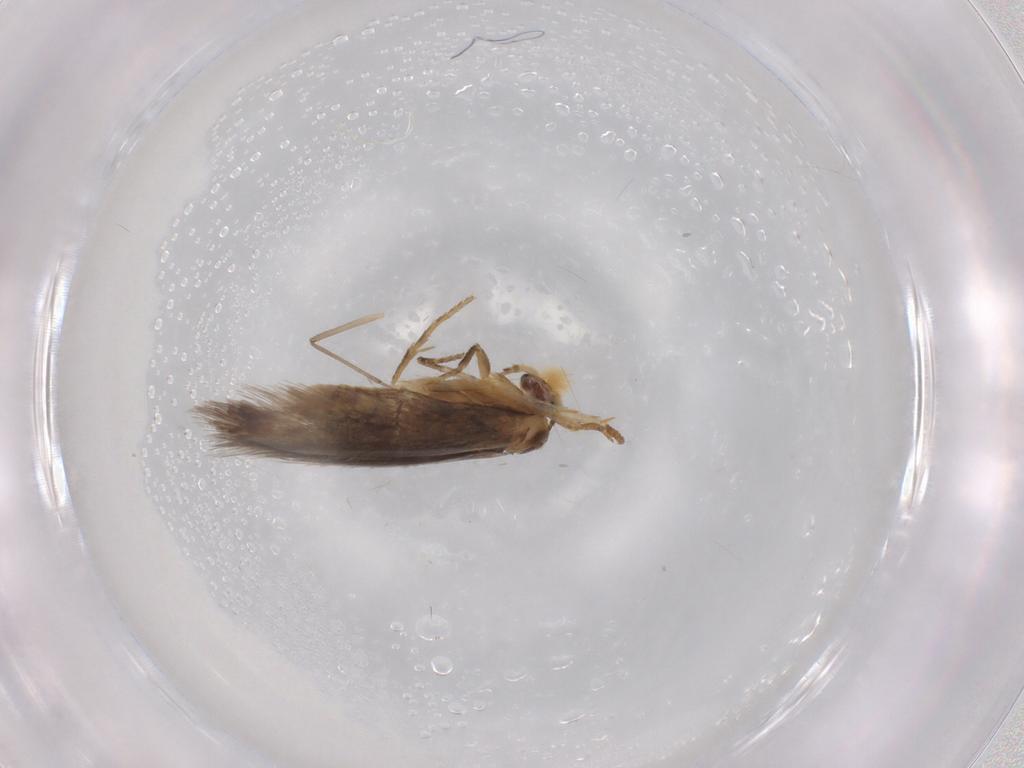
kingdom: Animalia
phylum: Arthropoda
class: Insecta
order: Lepidoptera
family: Nepticulidae
